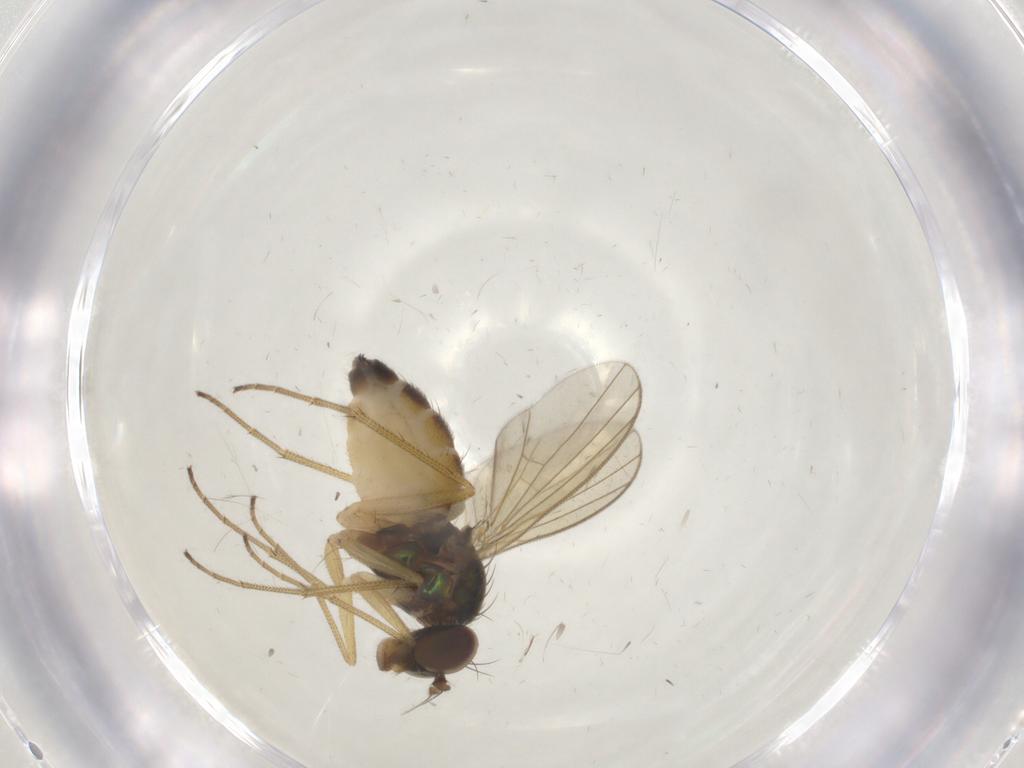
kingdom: Animalia
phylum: Arthropoda
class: Insecta
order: Diptera
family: Dolichopodidae
